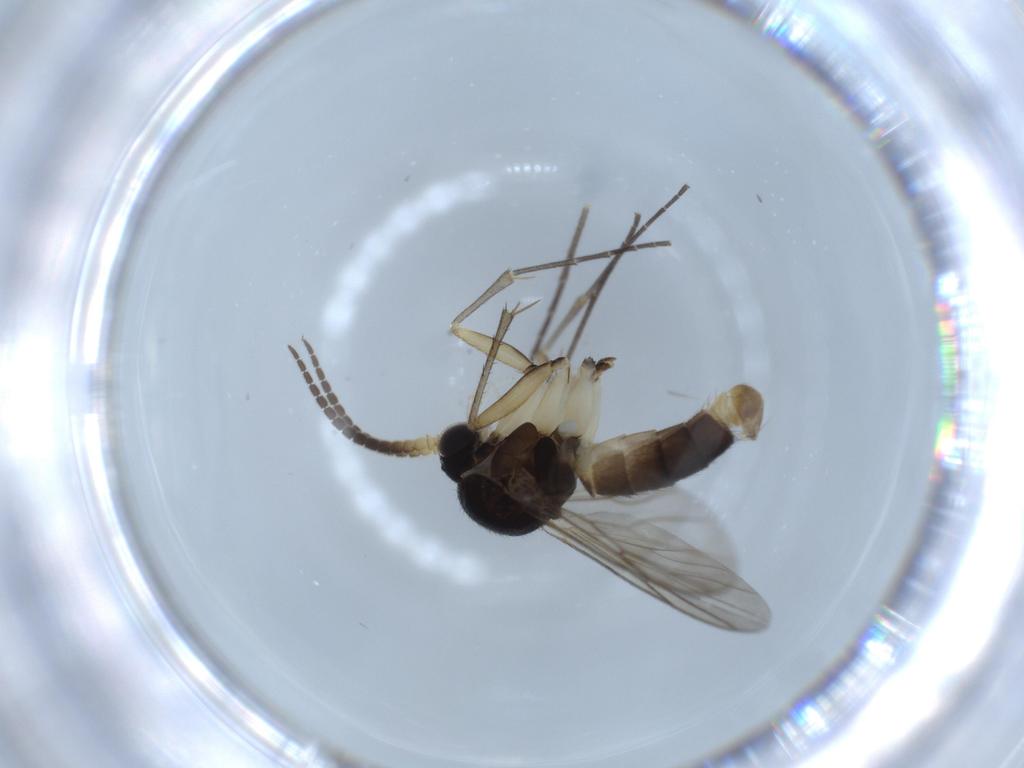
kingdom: Animalia
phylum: Arthropoda
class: Insecta
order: Diptera
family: Mycetophilidae
